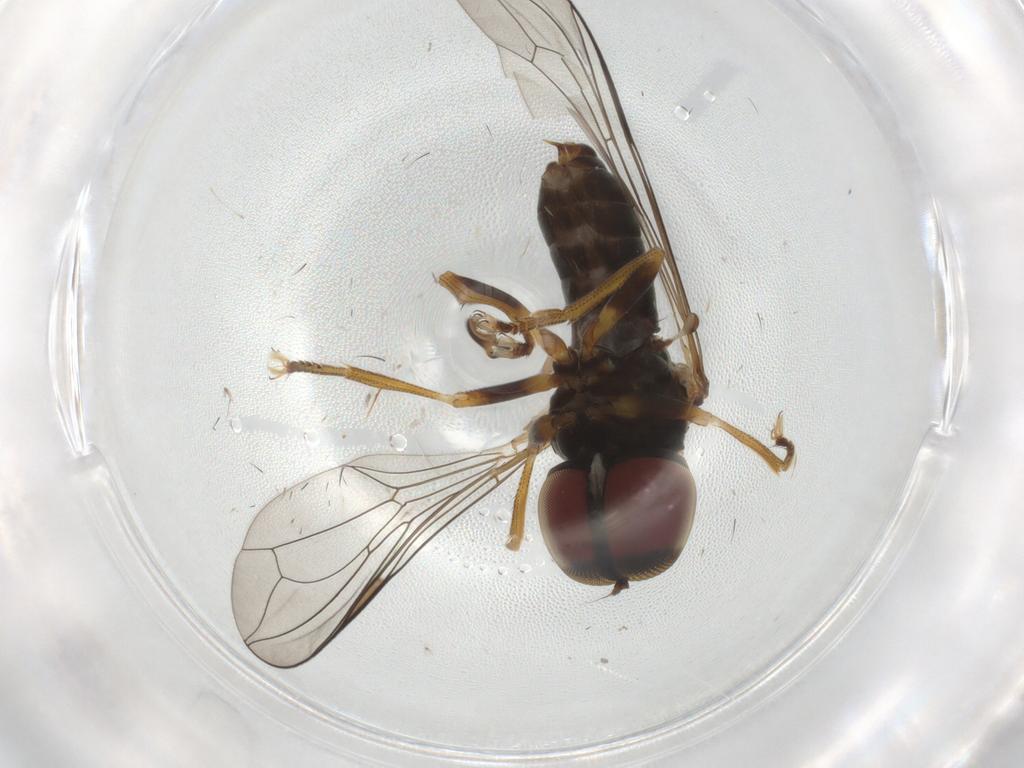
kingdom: Animalia
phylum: Arthropoda
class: Insecta
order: Diptera
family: Pipunculidae
